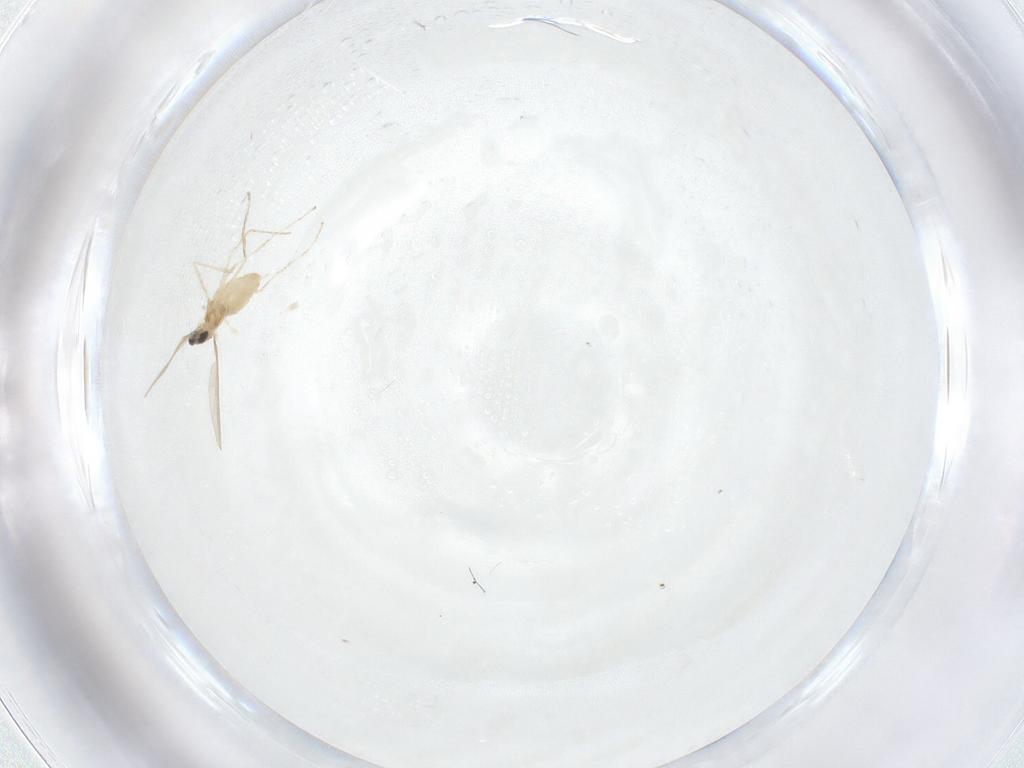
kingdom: Animalia
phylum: Arthropoda
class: Insecta
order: Diptera
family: Cecidomyiidae
